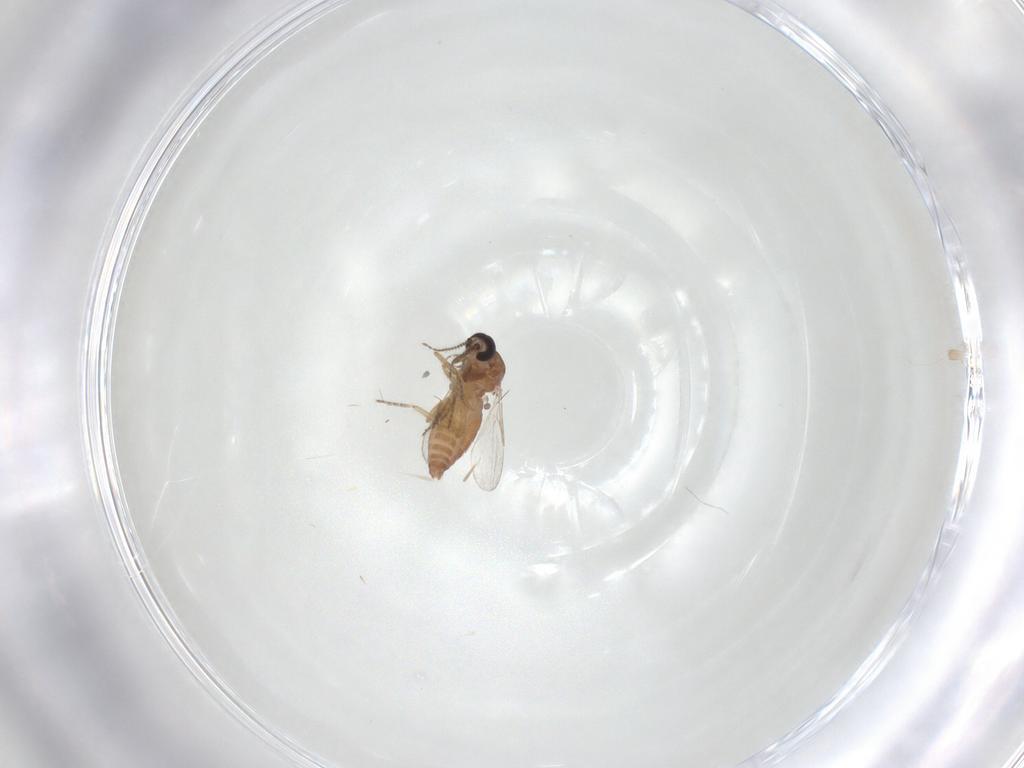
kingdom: Animalia
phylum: Arthropoda
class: Insecta
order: Diptera
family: Ceratopogonidae
